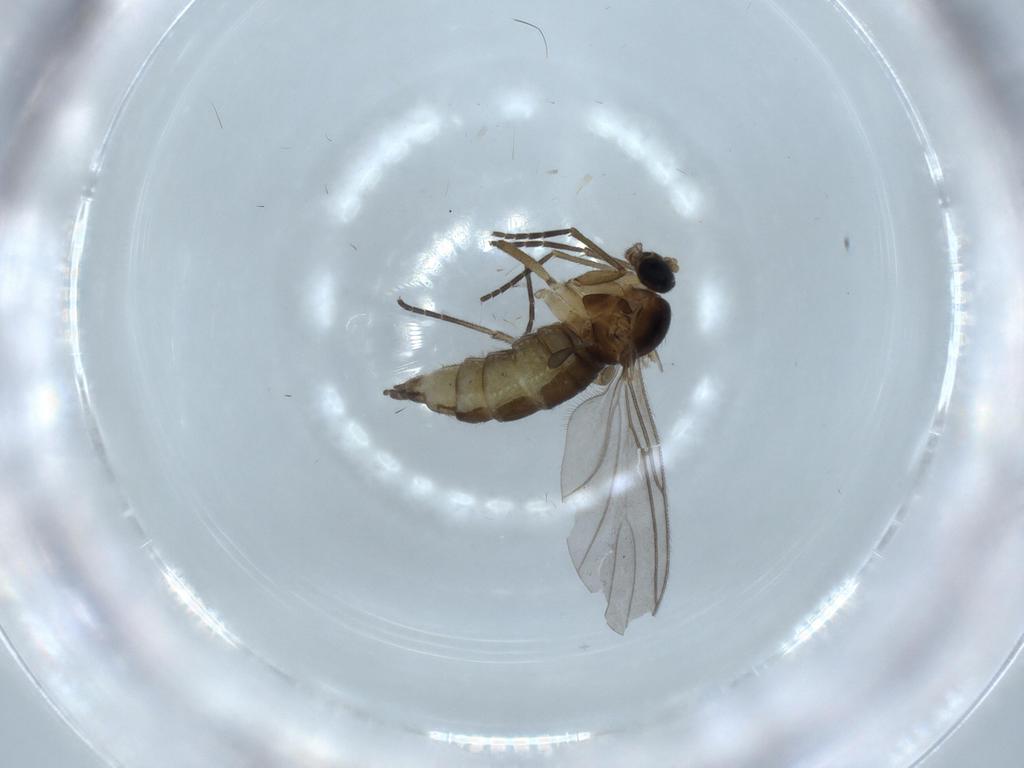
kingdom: Animalia
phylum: Arthropoda
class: Insecta
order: Diptera
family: Sciaridae
